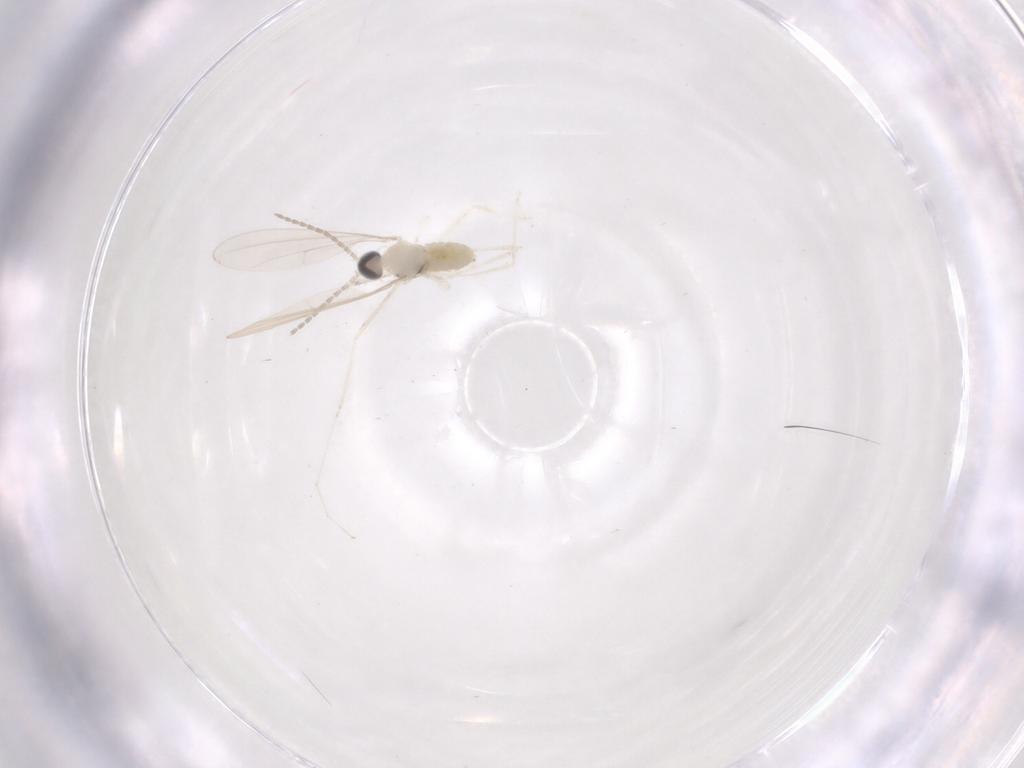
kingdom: Animalia
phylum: Arthropoda
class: Insecta
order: Diptera
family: Cecidomyiidae
